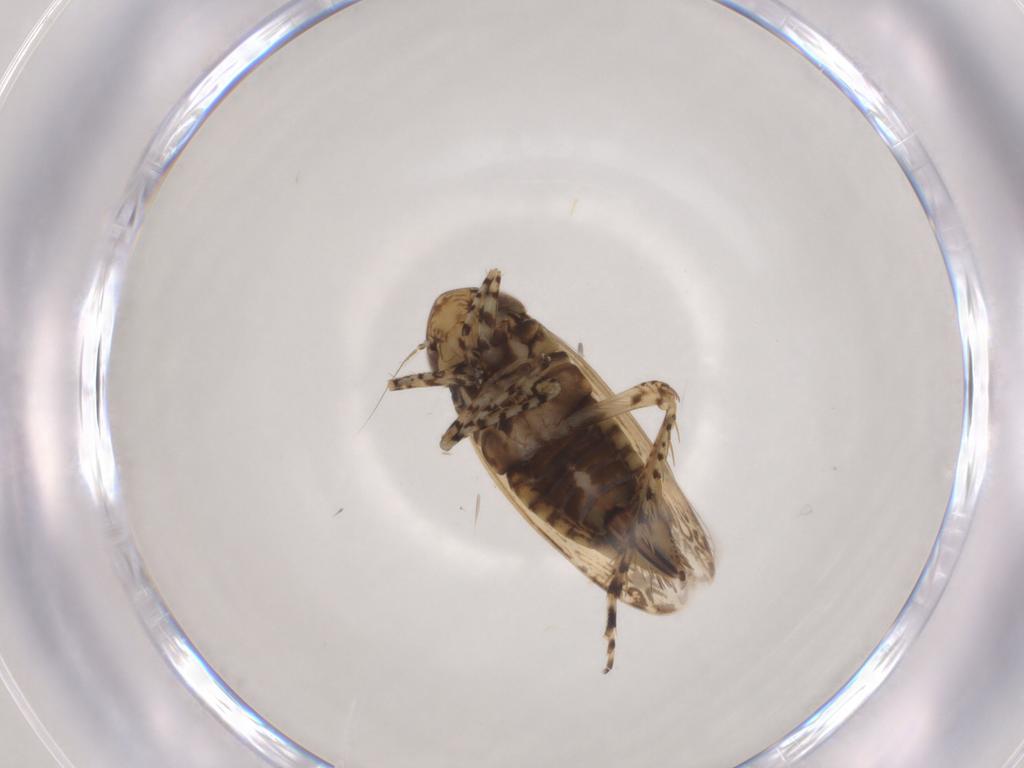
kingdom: Animalia
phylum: Arthropoda
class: Insecta
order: Hemiptera
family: Cicadellidae
